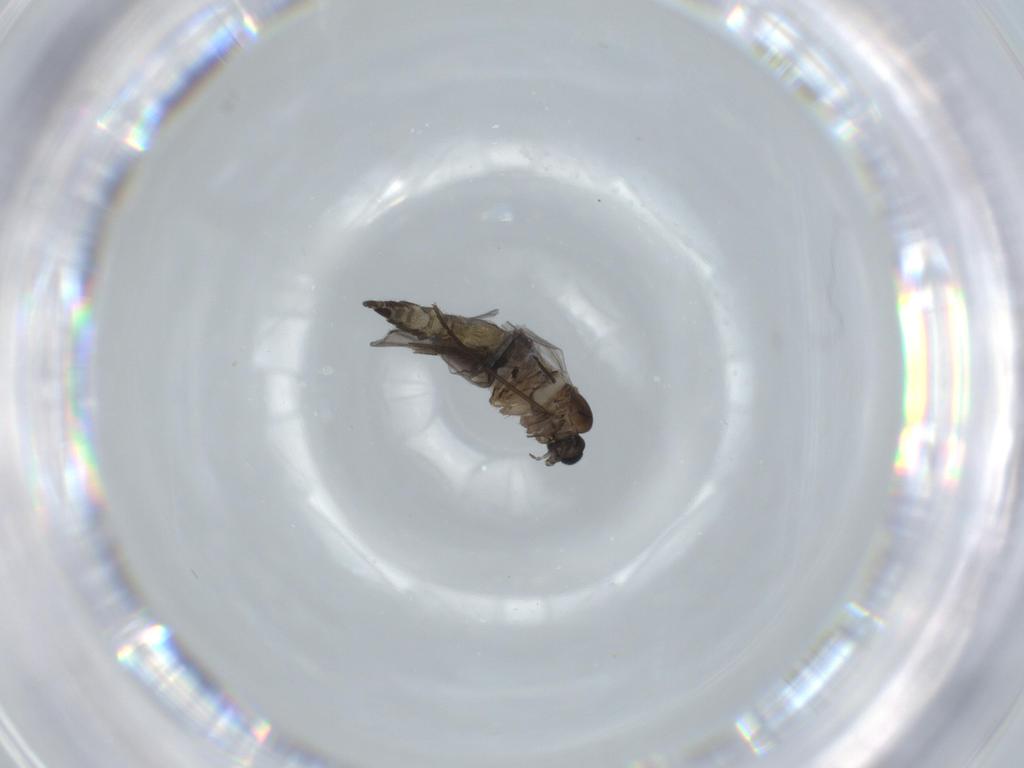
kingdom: Animalia
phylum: Arthropoda
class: Insecta
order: Diptera
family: Sciaridae
